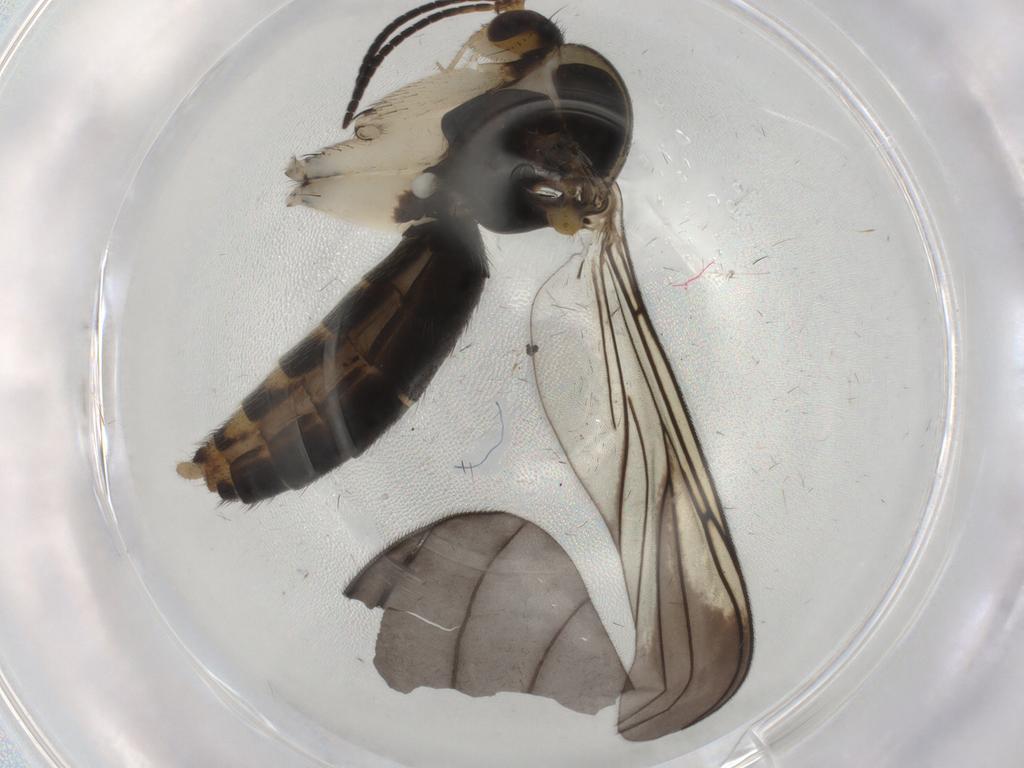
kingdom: Animalia
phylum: Arthropoda
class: Insecta
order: Diptera
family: Mycetophilidae
